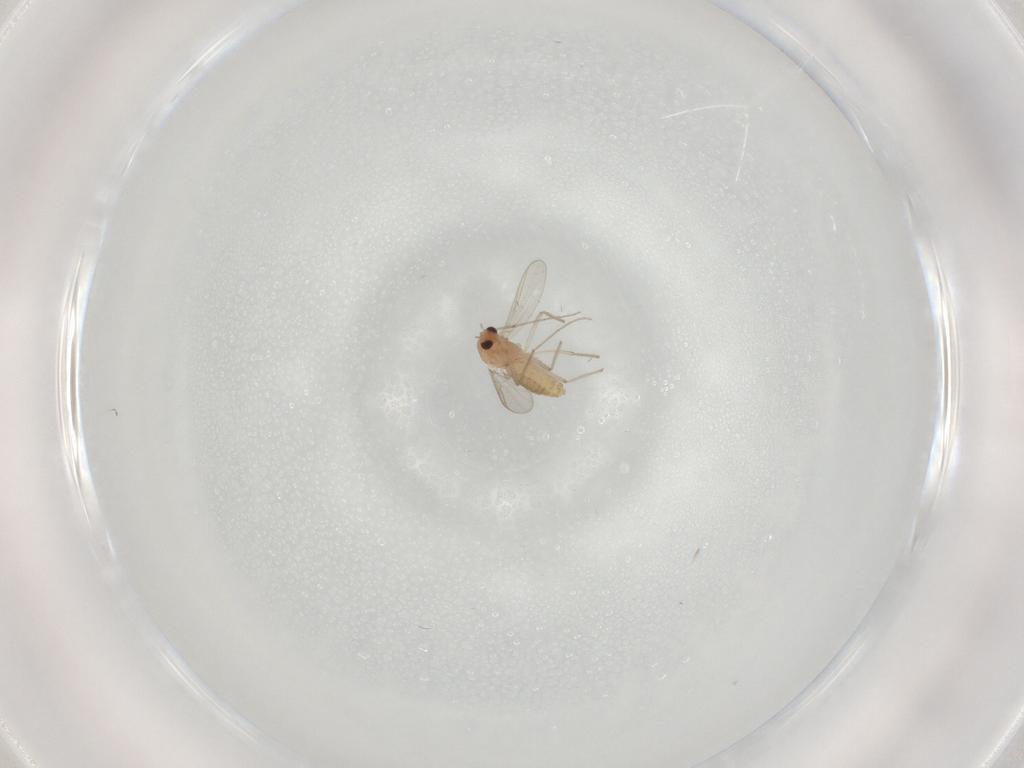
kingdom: Animalia
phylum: Arthropoda
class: Insecta
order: Diptera
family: Chironomidae
